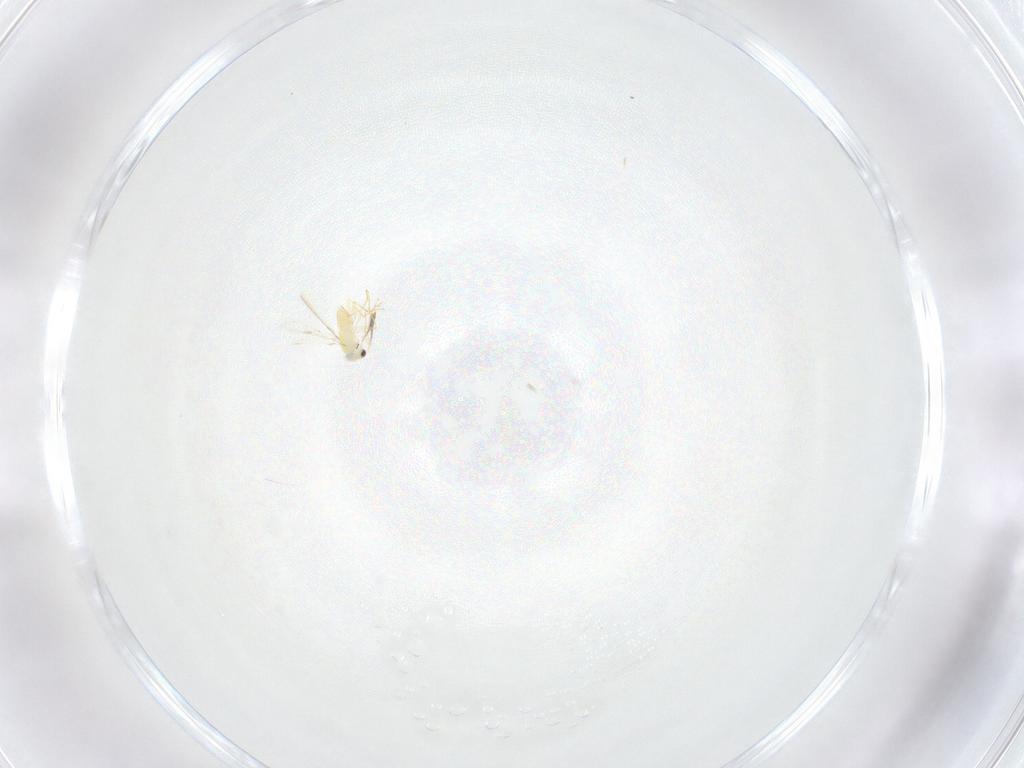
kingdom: Animalia
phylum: Arthropoda
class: Insecta
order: Hymenoptera
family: Mymaridae
